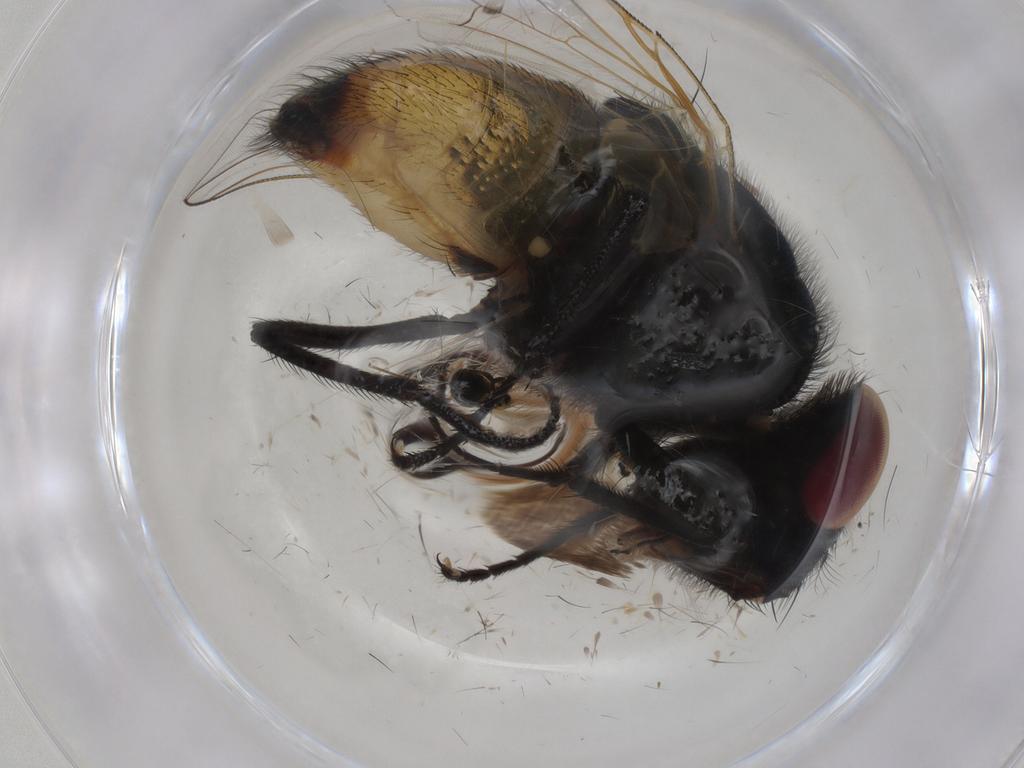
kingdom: Animalia
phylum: Arthropoda
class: Insecta
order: Diptera
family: Muscidae
